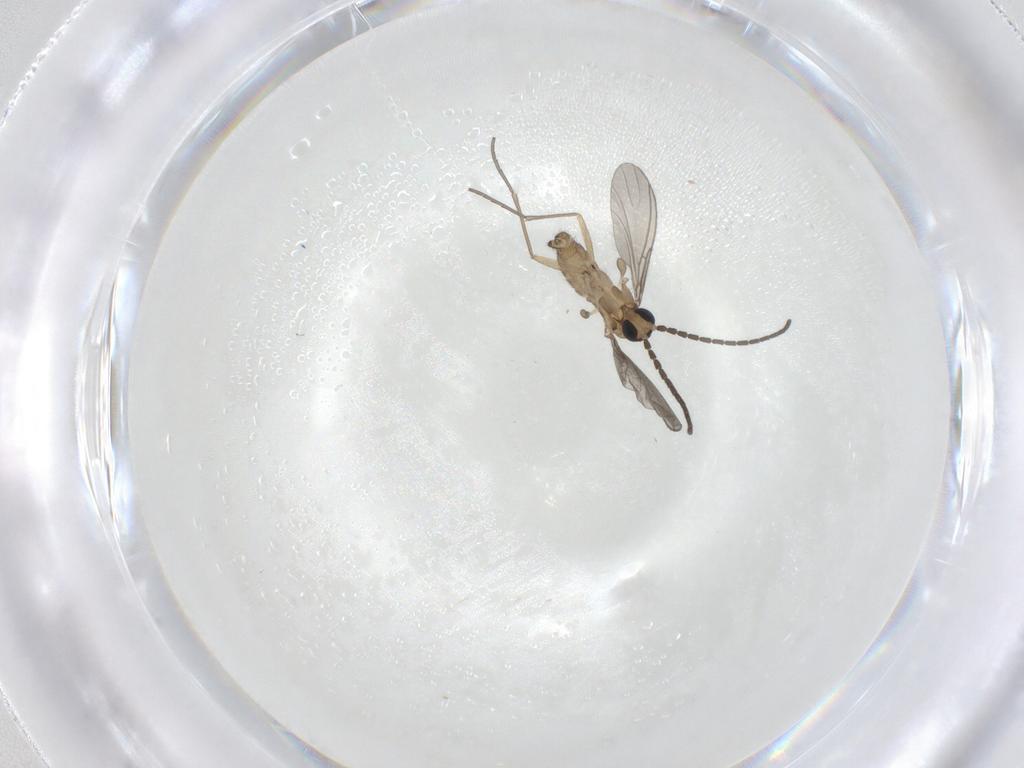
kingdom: Animalia
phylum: Arthropoda
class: Insecta
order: Diptera
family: Sciaridae
